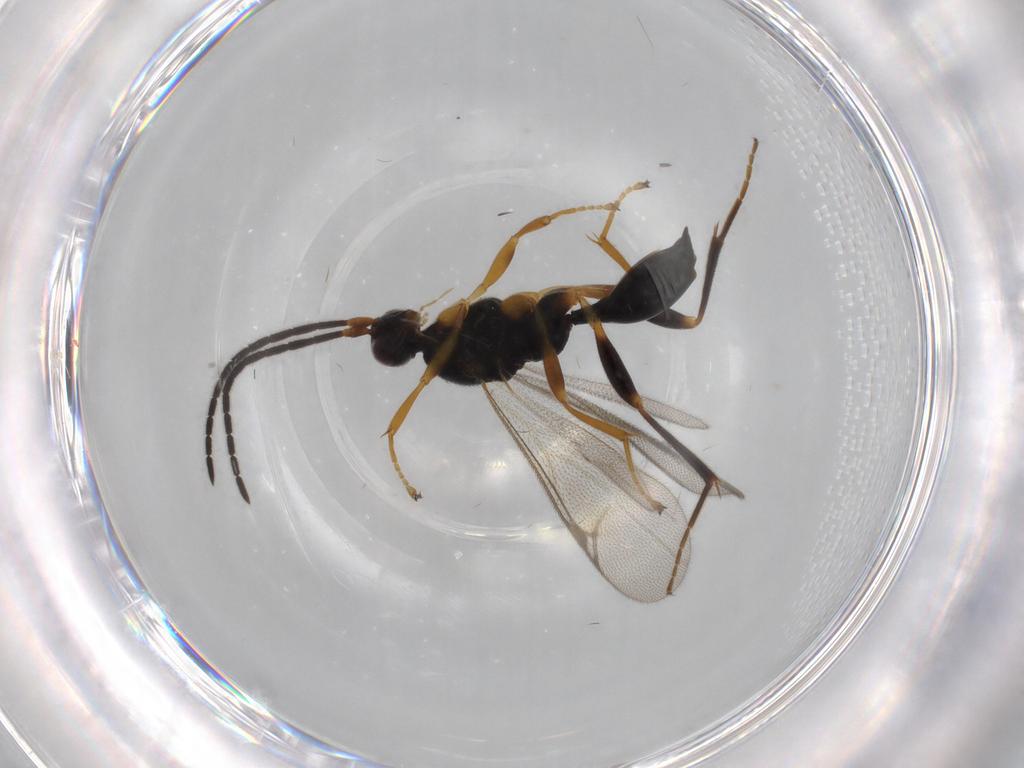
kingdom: Animalia
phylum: Arthropoda
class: Insecta
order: Hymenoptera
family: Proctotrupidae
